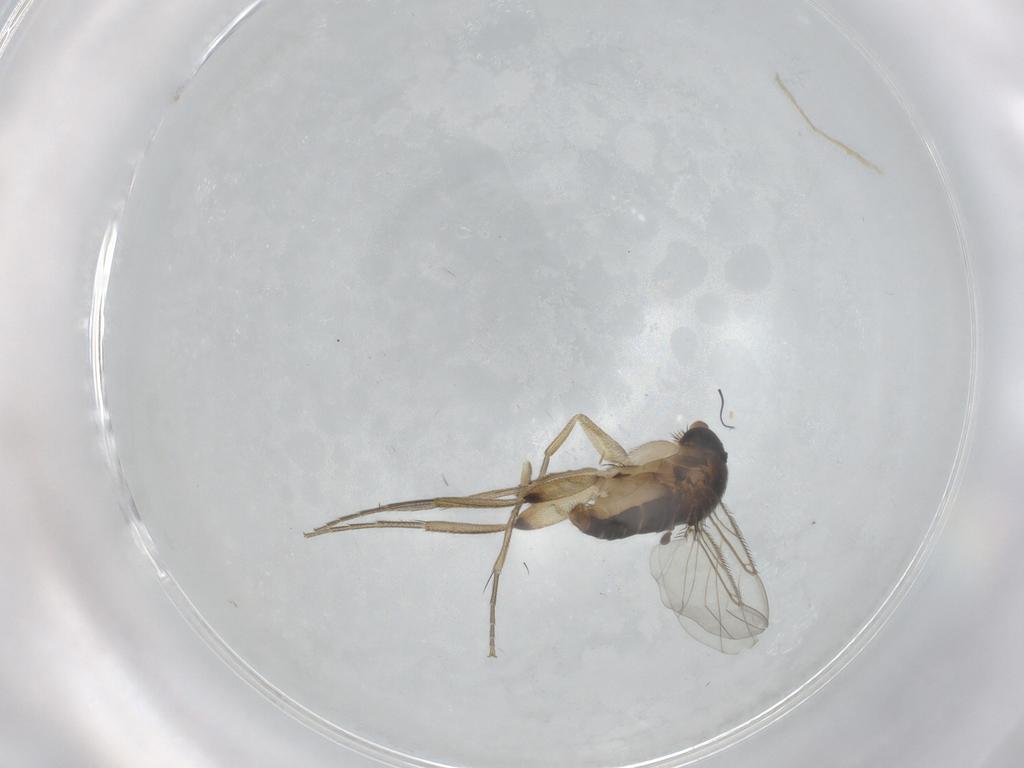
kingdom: Animalia
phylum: Arthropoda
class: Insecta
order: Diptera
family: Phoridae
